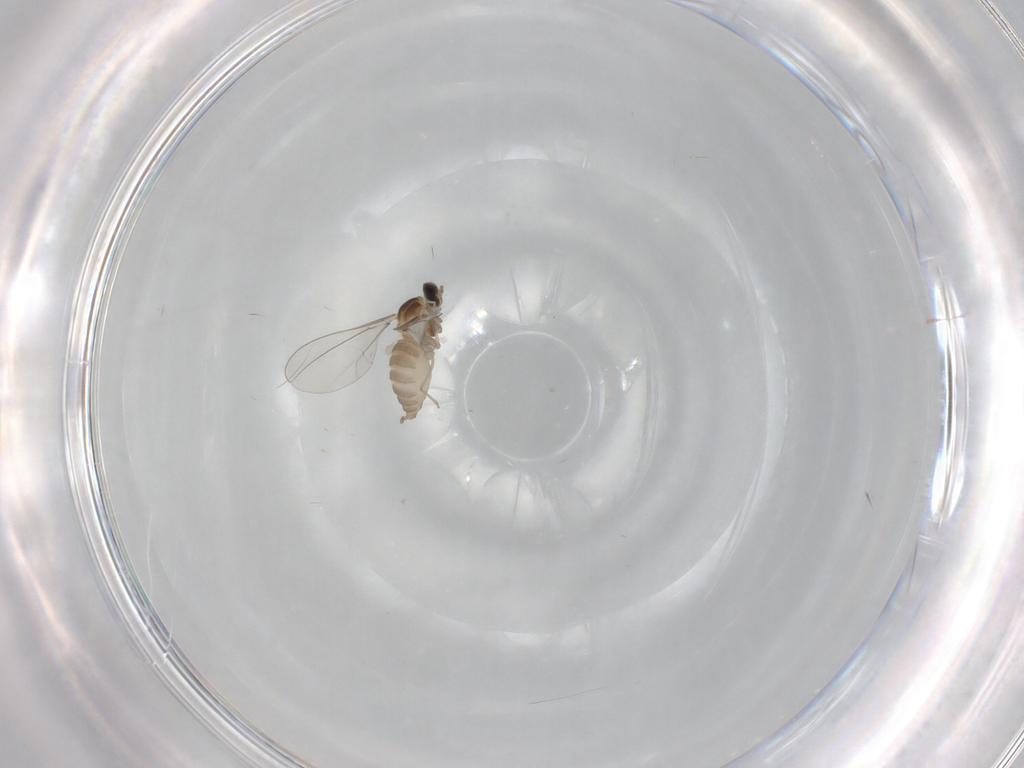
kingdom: Animalia
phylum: Arthropoda
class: Insecta
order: Diptera
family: Cecidomyiidae
